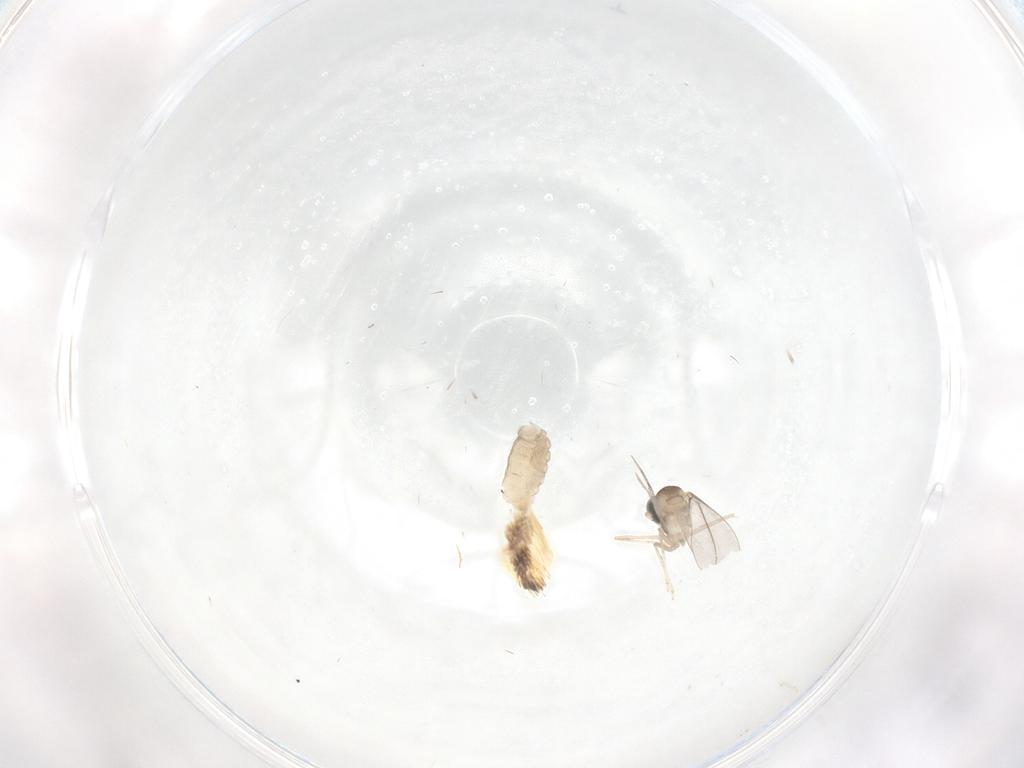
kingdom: Animalia
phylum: Arthropoda
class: Insecta
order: Diptera
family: Cecidomyiidae
